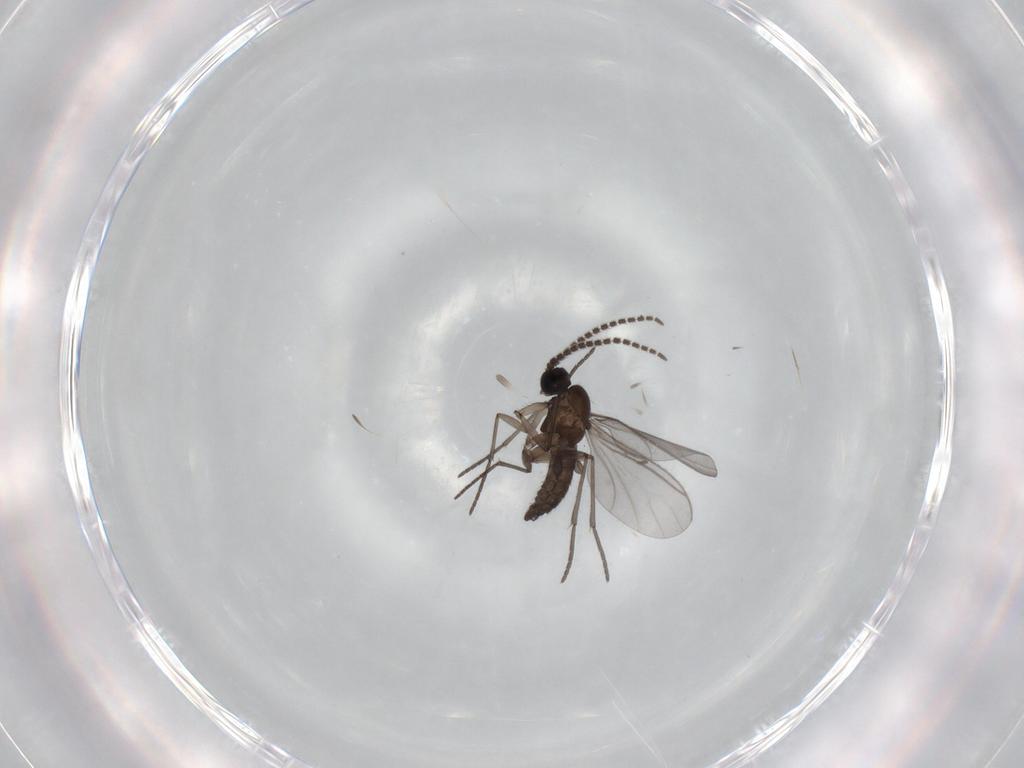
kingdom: Animalia
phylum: Arthropoda
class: Insecta
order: Diptera
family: Sciaridae
